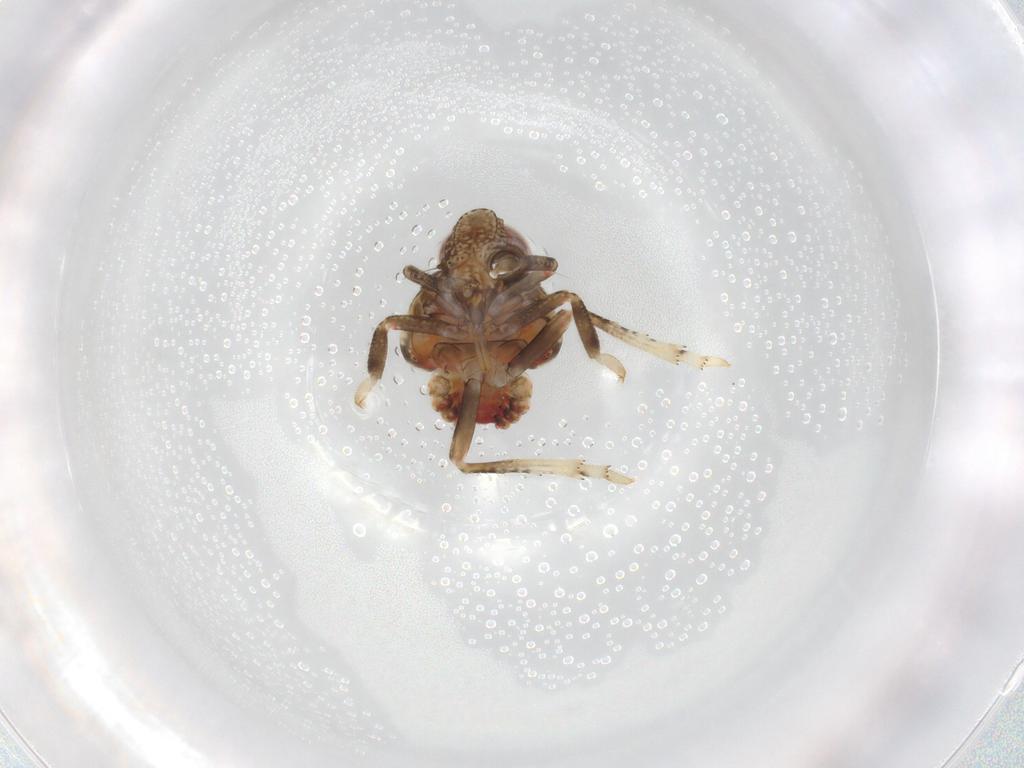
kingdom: Animalia
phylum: Arthropoda
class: Insecta
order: Hemiptera
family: Tropiduchidae
